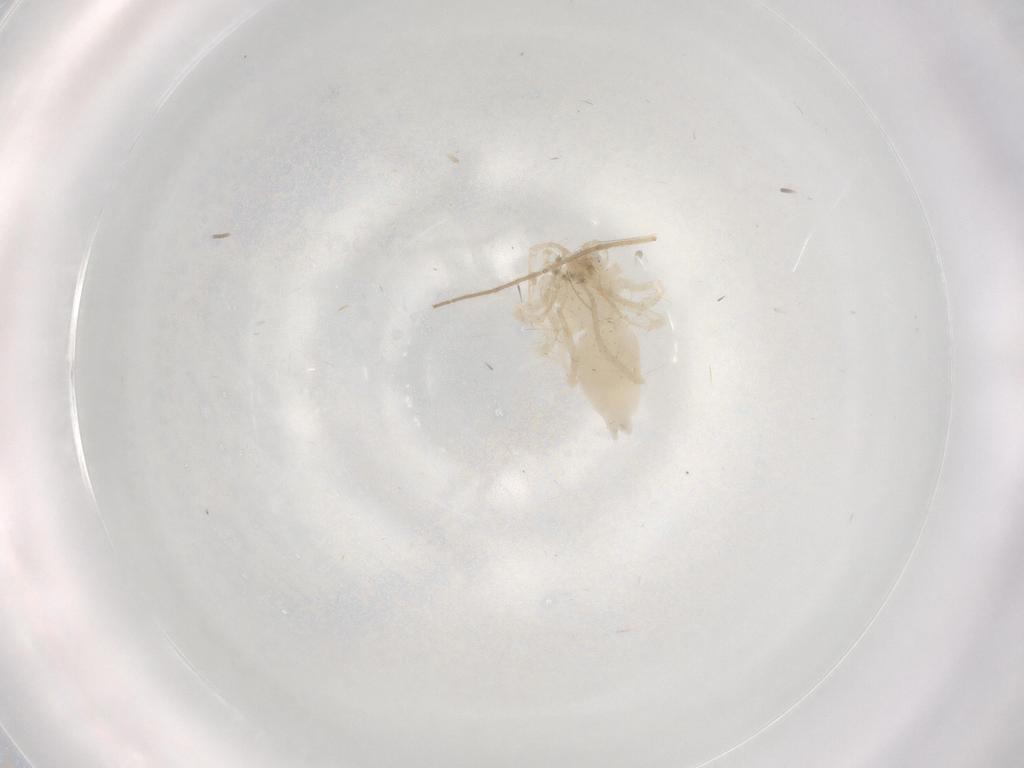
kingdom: Animalia
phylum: Arthropoda
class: Arachnida
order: Araneae
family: Anyphaenidae
